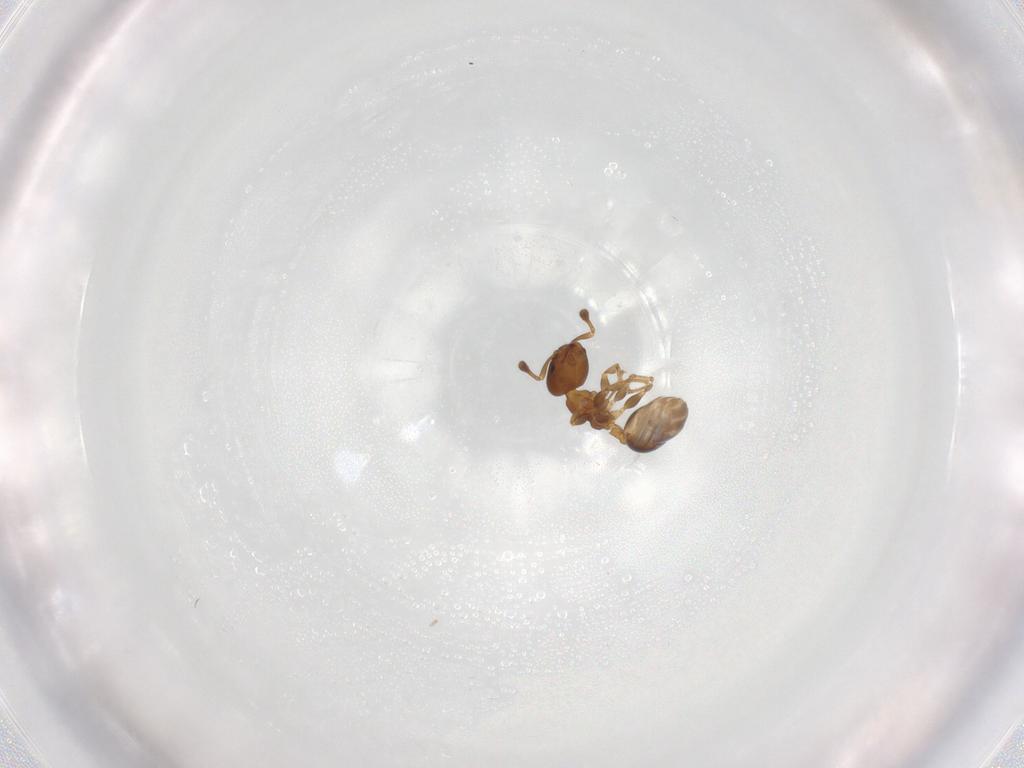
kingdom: Animalia
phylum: Arthropoda
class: Insecta
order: Hymenoptera
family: Formicidae
